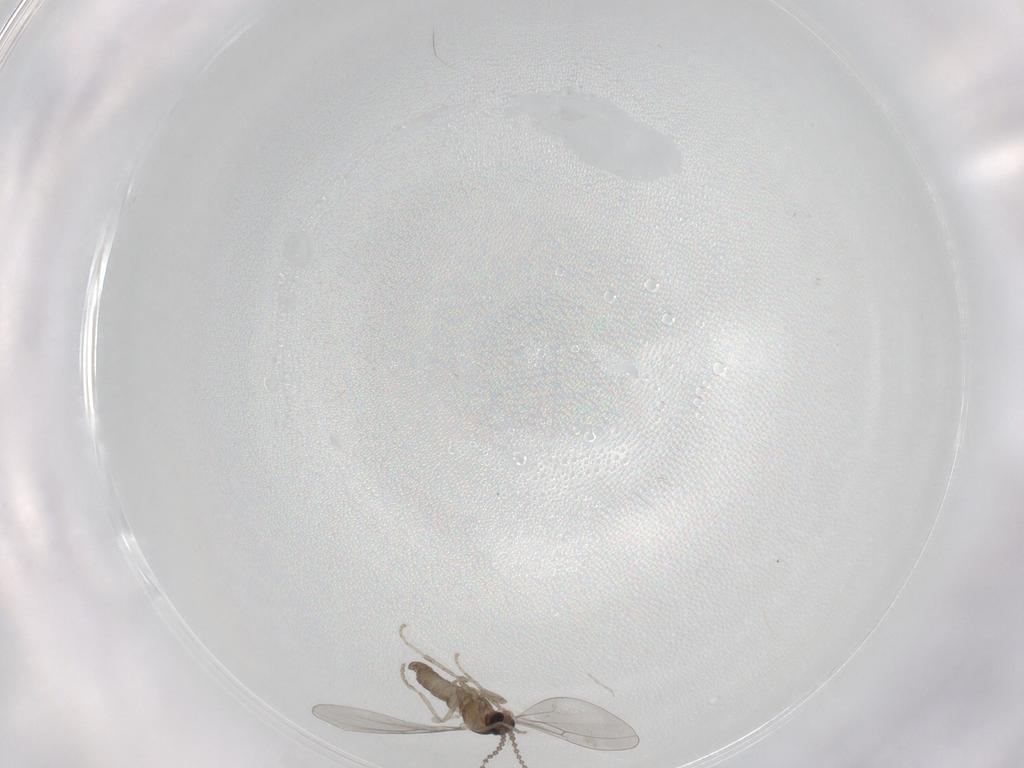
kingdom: Animalia
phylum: Arthropoda
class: Insecta
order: Diptera
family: Cecidomyiidae
